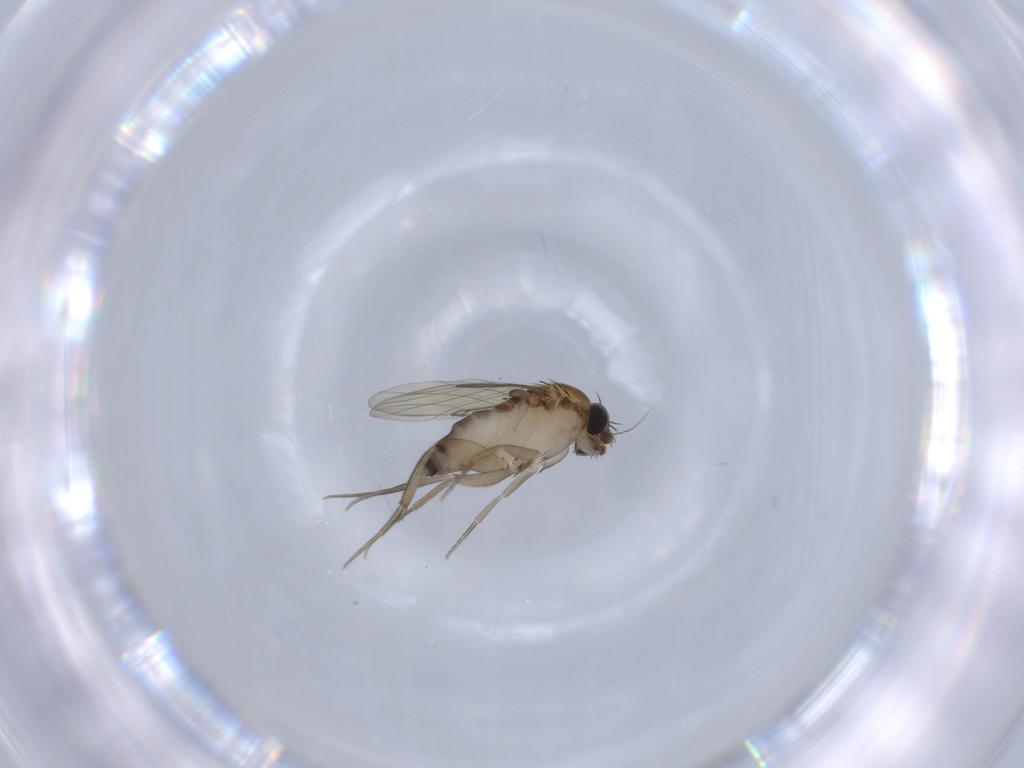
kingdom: Animalia
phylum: Arthropoda
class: Insecta
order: Diptera
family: Phoridae
